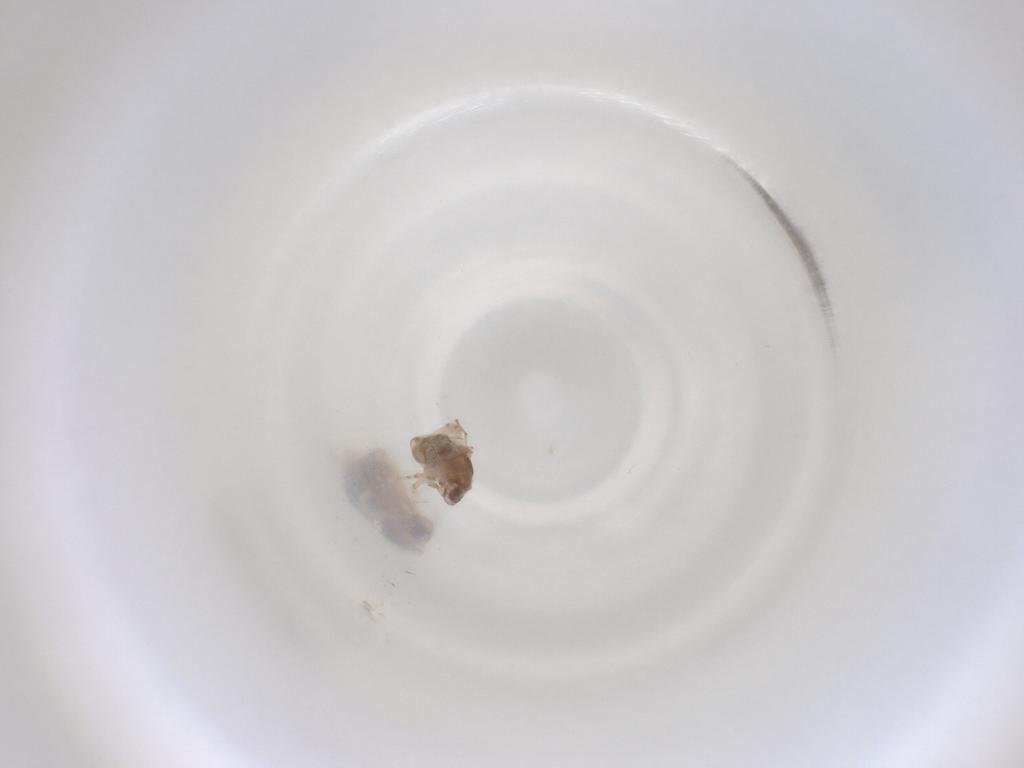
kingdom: Animalia
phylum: Arthropoda
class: Insecta
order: Diptera
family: Cecidomyiidae
